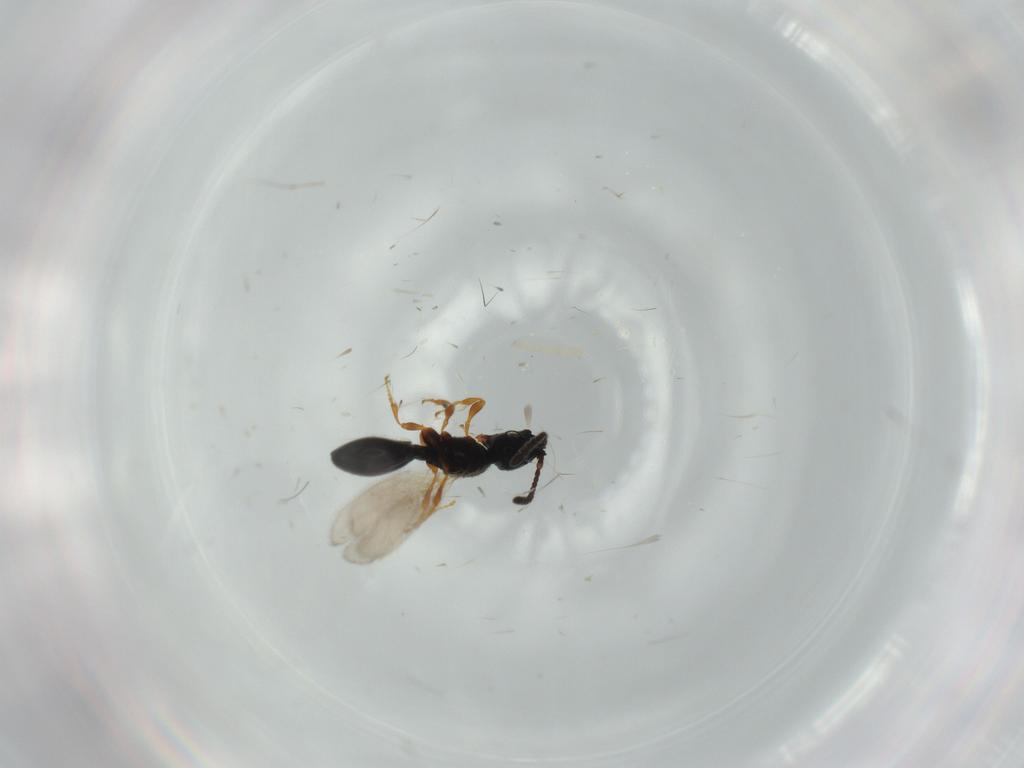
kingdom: Animalia
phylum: Arthropoda
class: Insecta
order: Hymenoptera
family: Diapriidae
